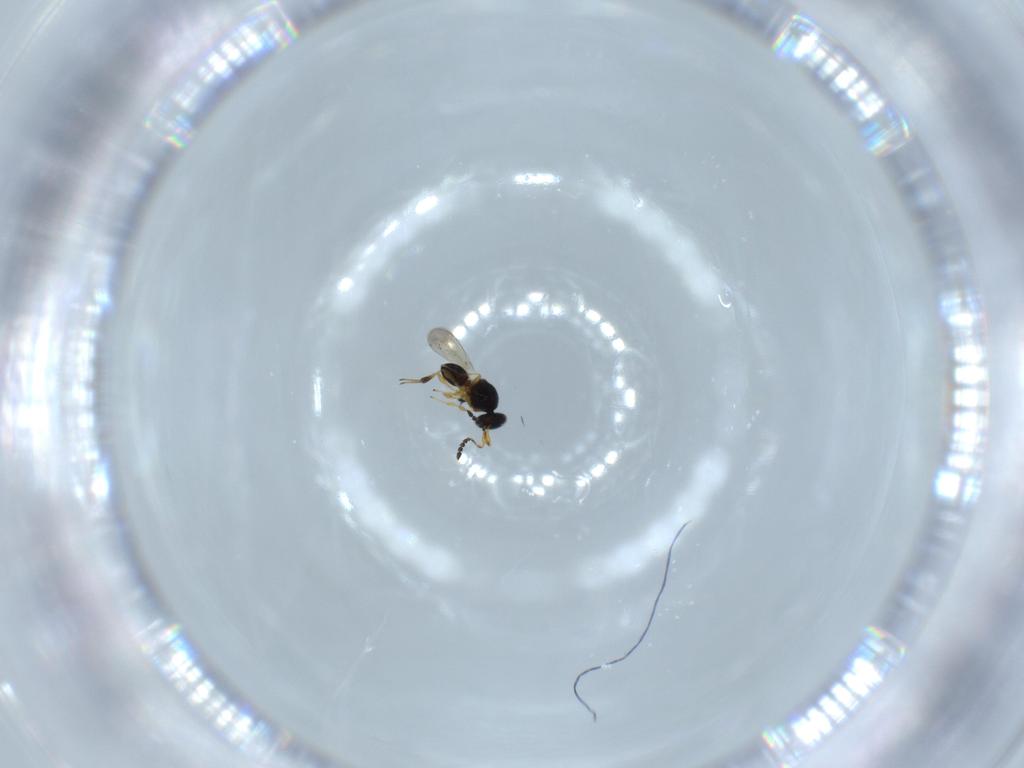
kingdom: Animalia
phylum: Arthropoda
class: Insecta
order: Hymenoptera
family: Platygastridae
